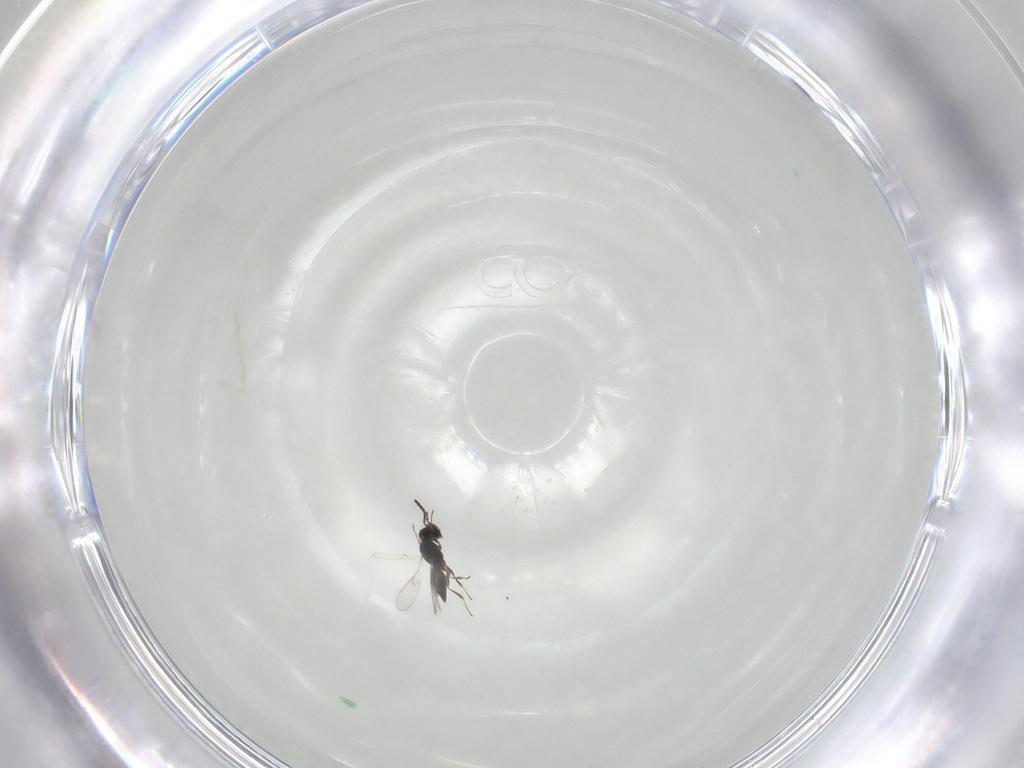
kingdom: Animalia
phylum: Arthropoda
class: Insecta
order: Hymenoptera
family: Scelionidae
